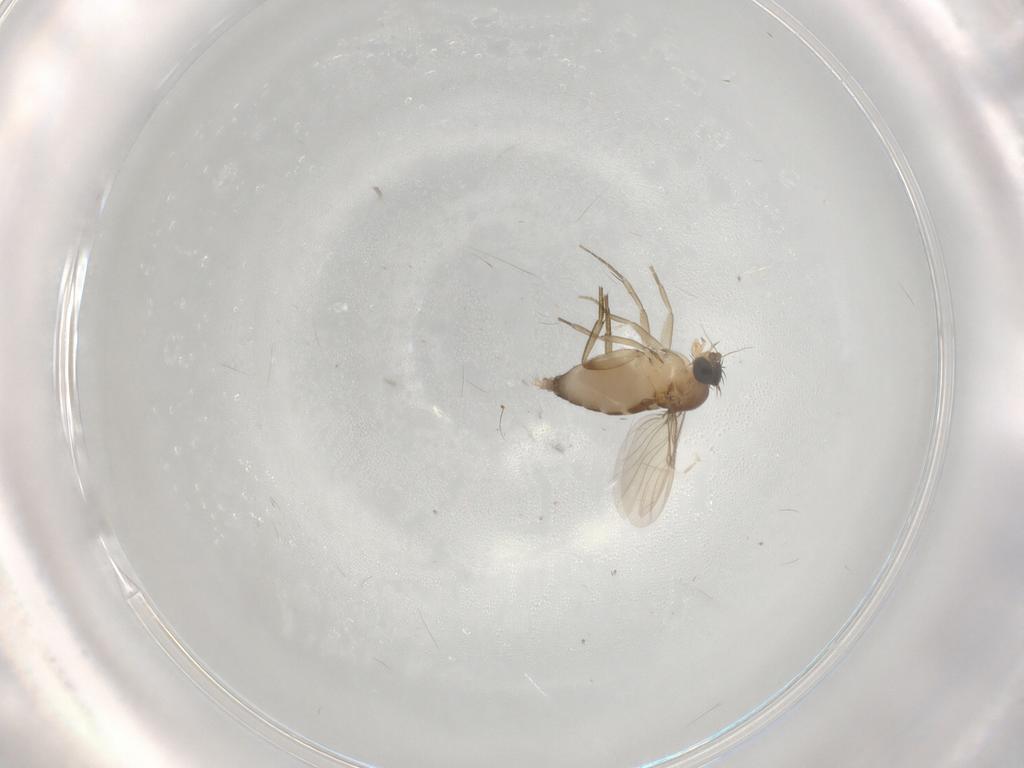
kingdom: Animalia
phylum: Arthropoda
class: Insecta
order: Diptera
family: Phoridae
